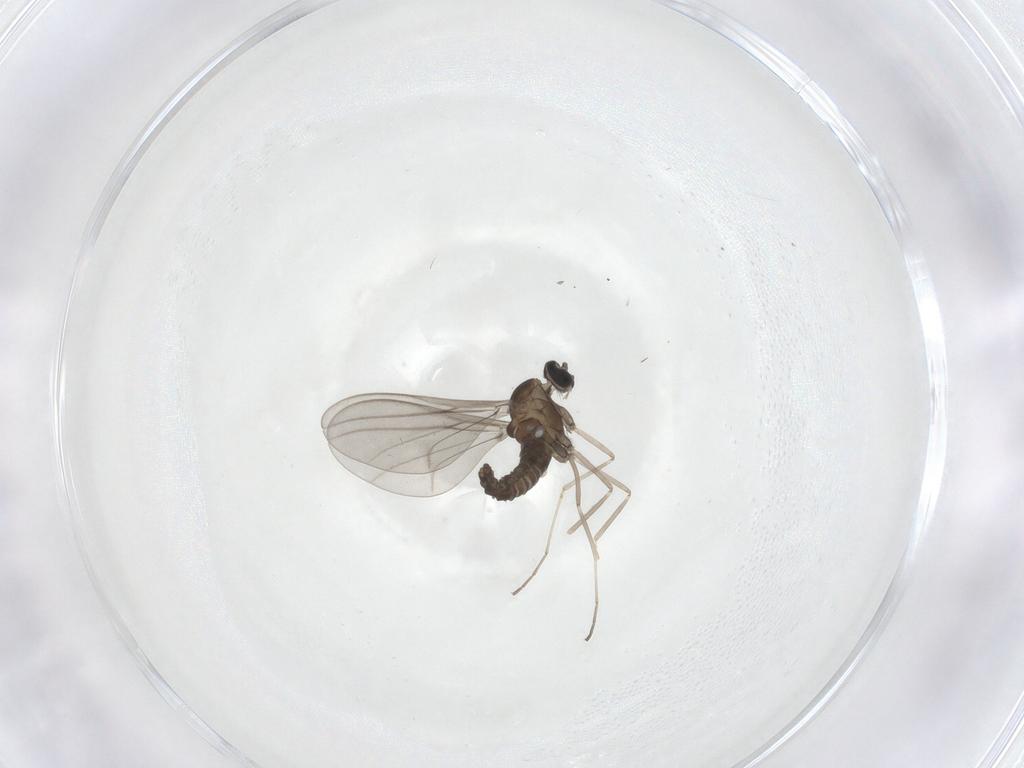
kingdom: Animalia
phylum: Arthropoda
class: Insecta
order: Diptera
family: Cecidomyiidae
